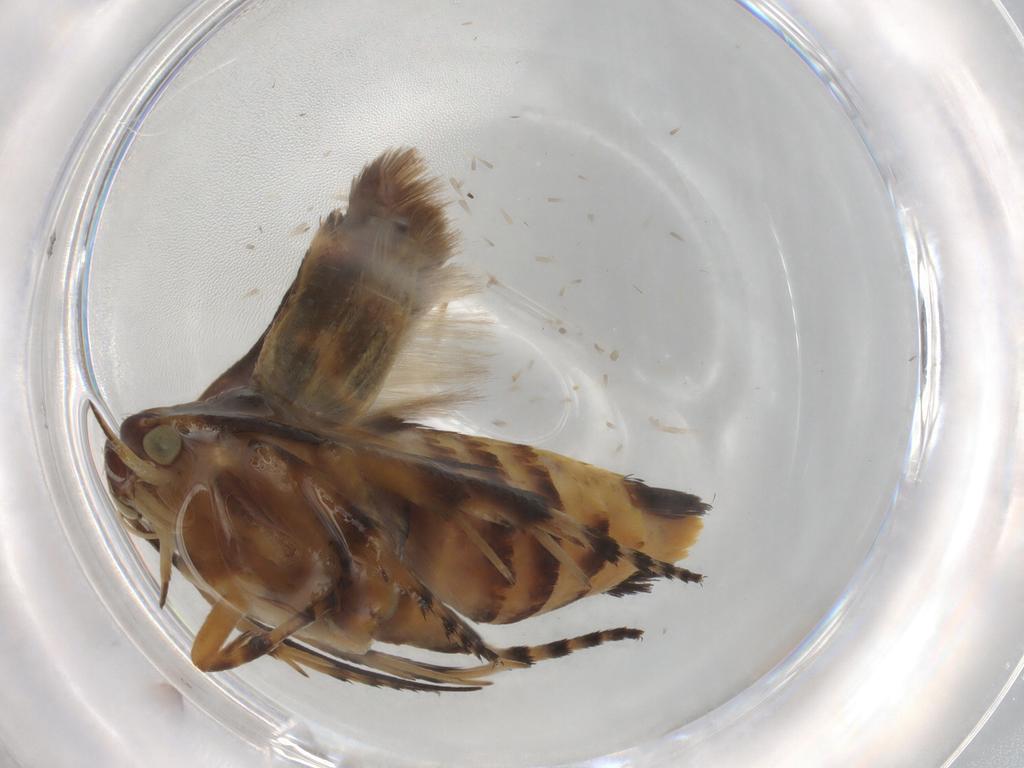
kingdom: Animalia
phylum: Arthropoda
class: Insecta
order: Lepidoptera
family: Scythrididae
